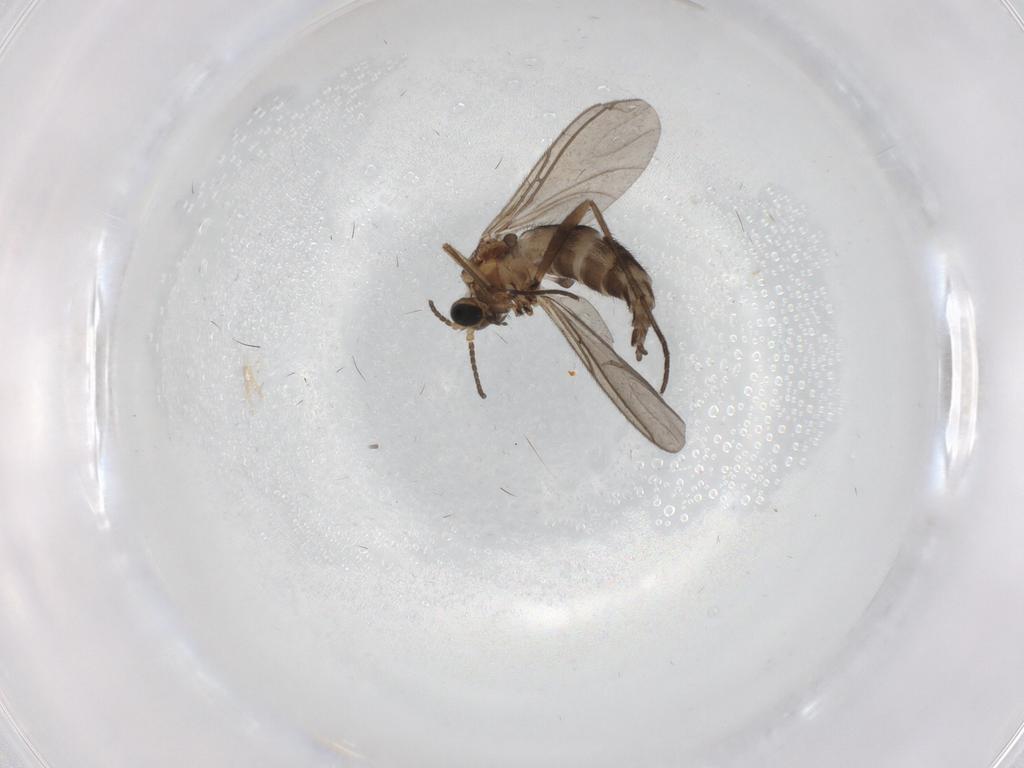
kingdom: Animalia
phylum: Arthropoda
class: Insecta
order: Diptera
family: Sciaridae
